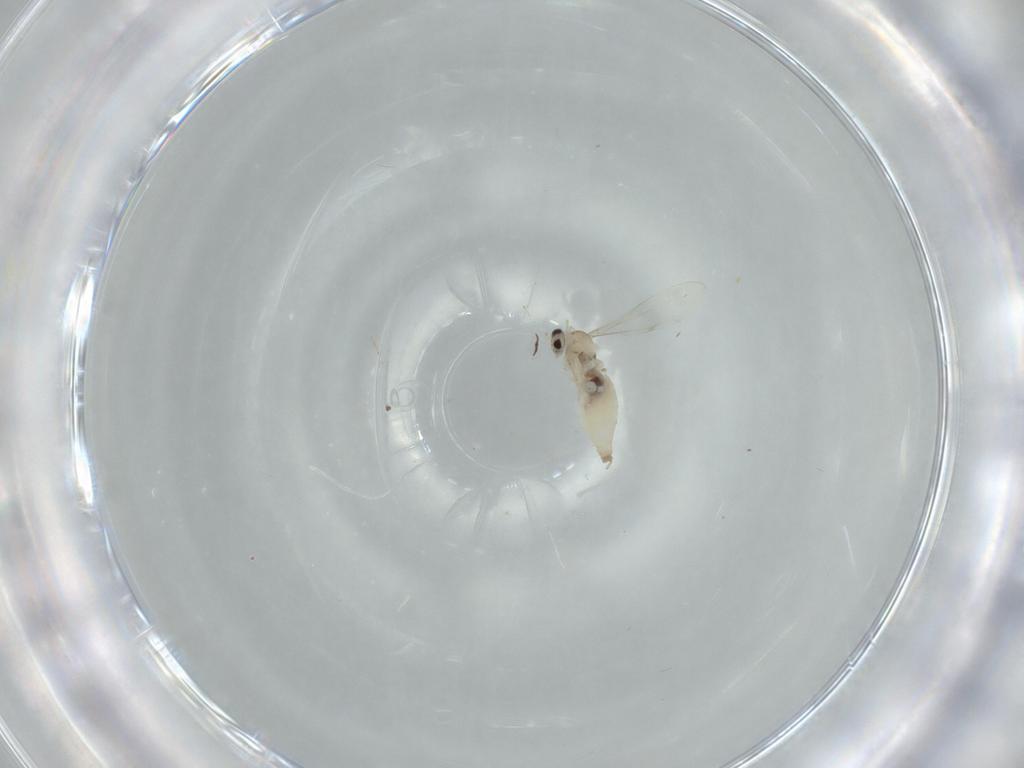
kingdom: Animalia
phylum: Arthropoda
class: Insecta
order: Diptera
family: Cecidomyiidae
